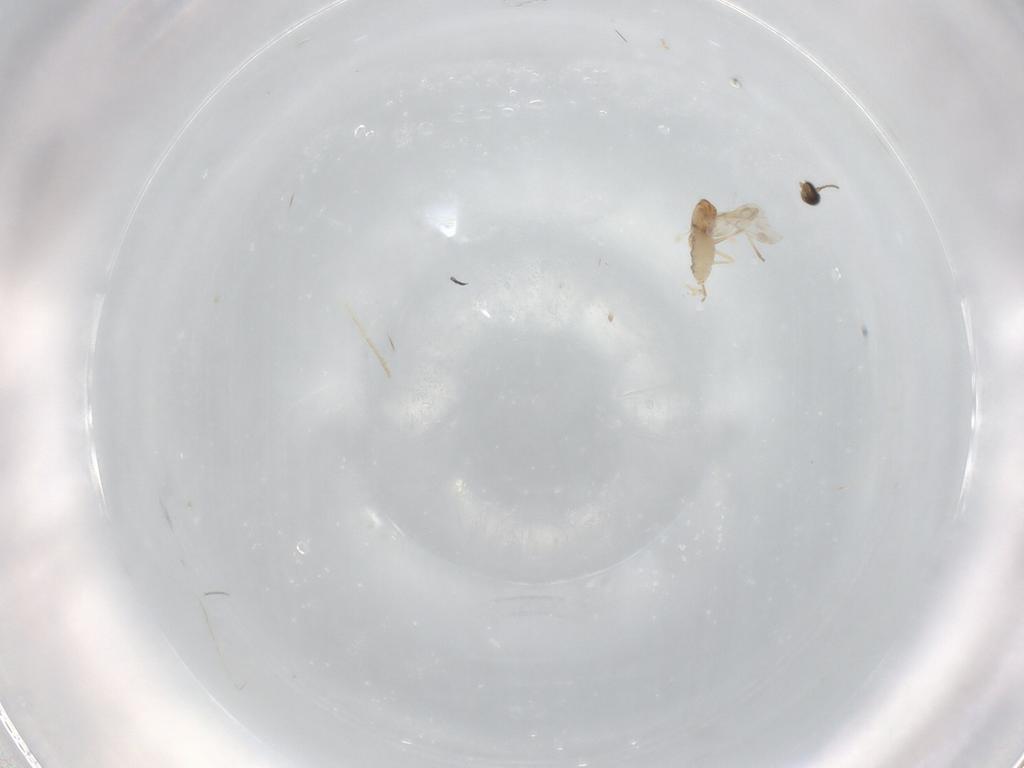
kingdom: Animalia
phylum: Arthropoda
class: Insecta
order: Diptera
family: Cecidomyiidae
